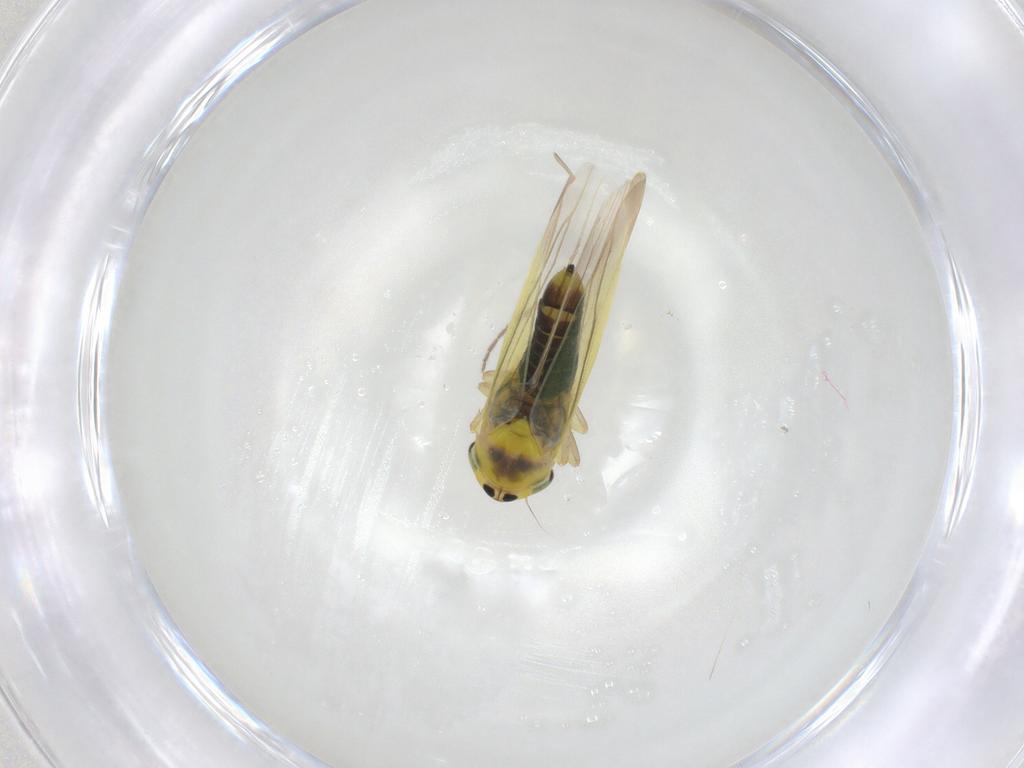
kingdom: Animalia
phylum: Arthropoda
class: Insecta
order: Hemiptera
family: Cicadellidae
